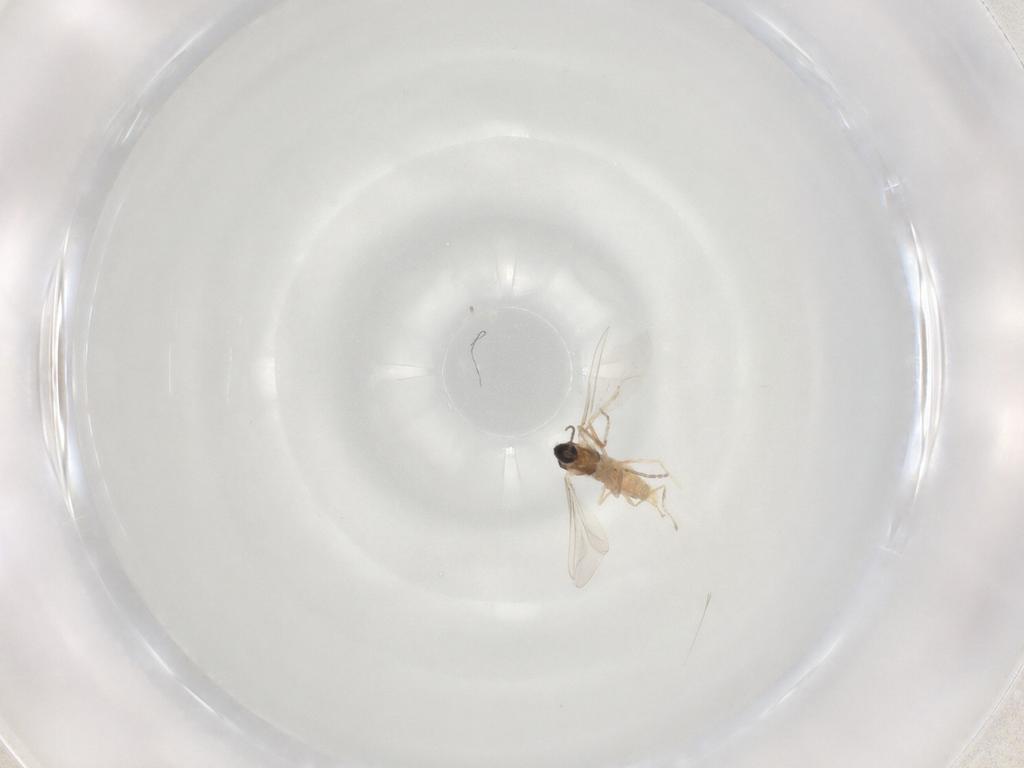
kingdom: Animalia
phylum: Arthropoda
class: Insecta
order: Diptera
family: Cecidomyiidae
